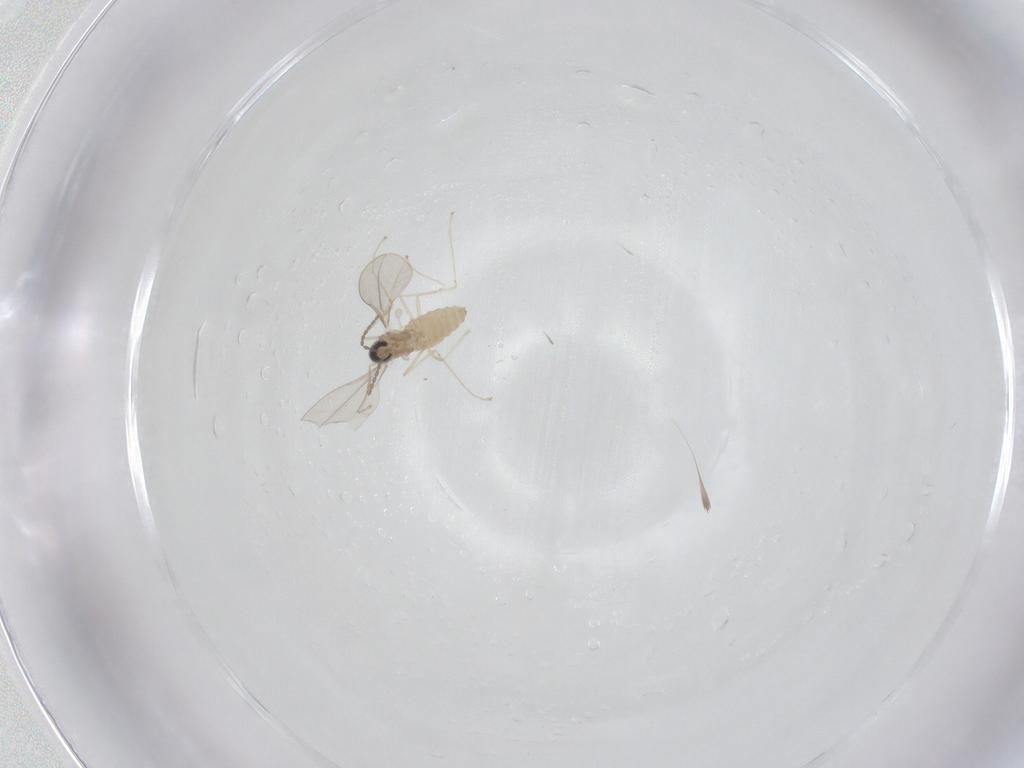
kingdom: Animalia
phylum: Arthropoda
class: Insecta
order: Diptera
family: Cecidomyiidae
